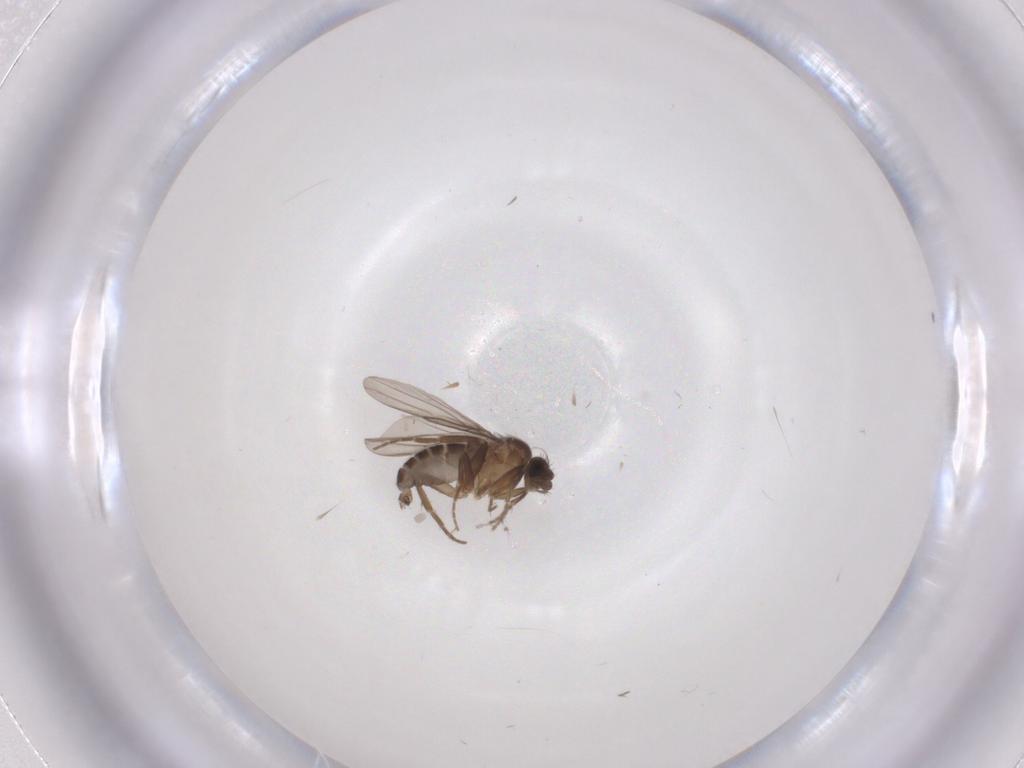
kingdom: Animalia
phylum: Arthropoda
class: Insecta
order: Diptera
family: Phoridae
